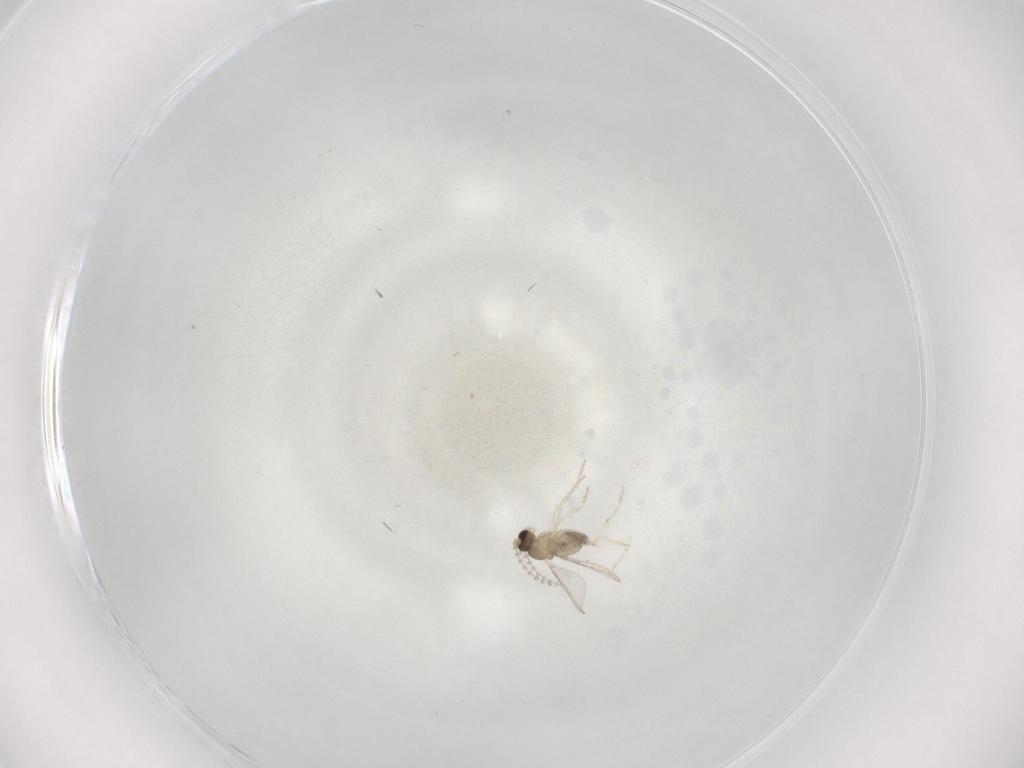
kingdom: Animalia
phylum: Arthropoda
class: Insecta
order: Diptera
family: Cecidomyiidae
